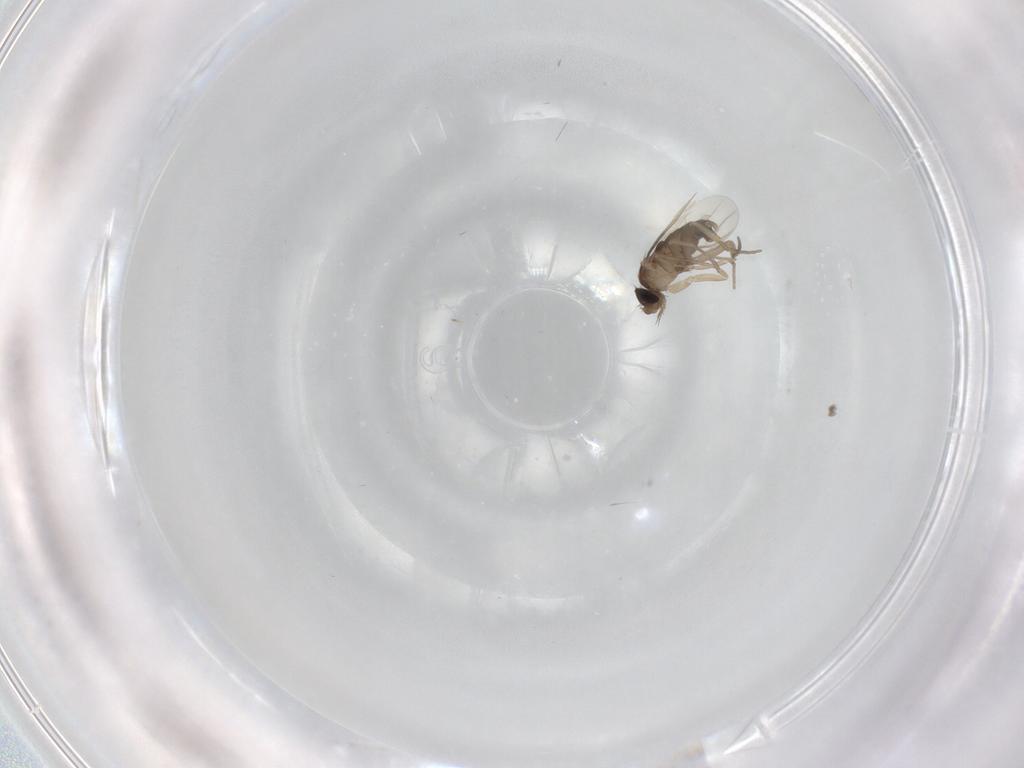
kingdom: Animalia
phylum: Arthropoda
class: Insecta
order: Diptera
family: Phoridae
